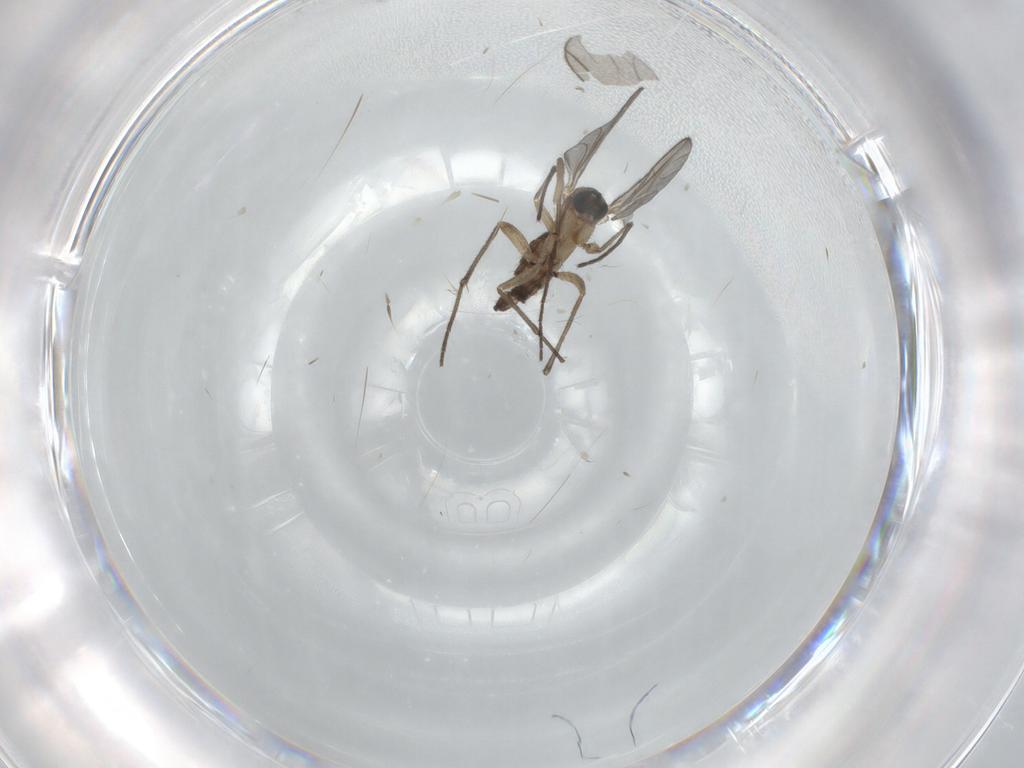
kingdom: Animalia
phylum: Arthropoda
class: Insecta
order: Diptera
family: Sciaridae
